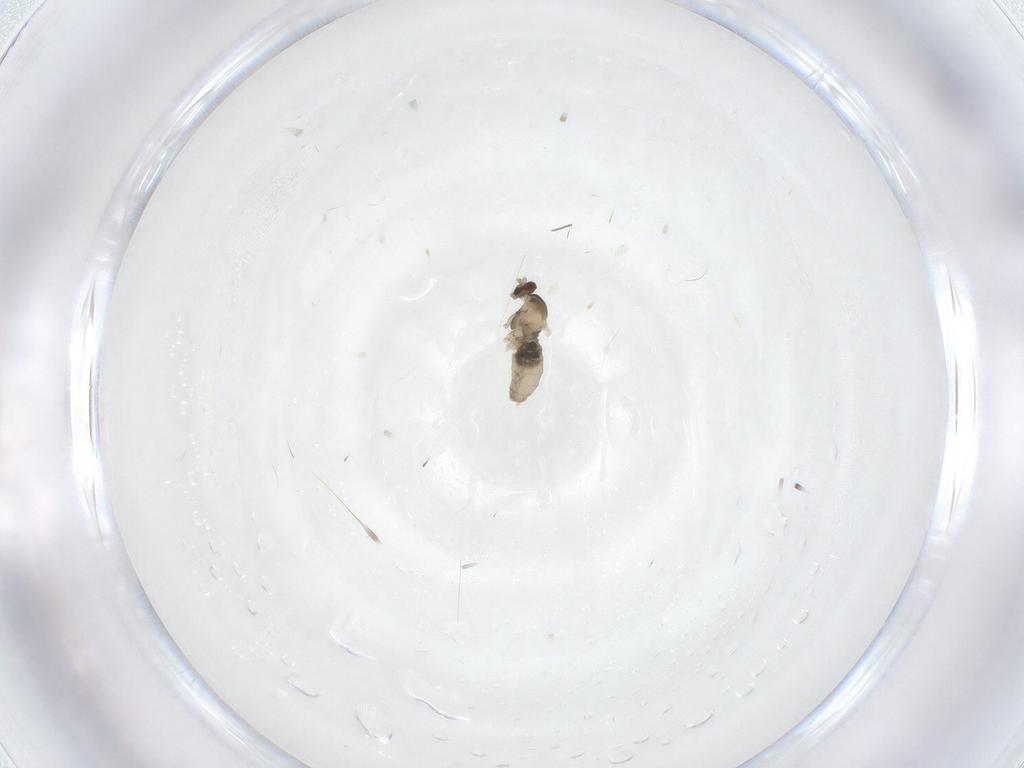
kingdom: Animalia
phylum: Arthropoda
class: Insecta
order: Diptera
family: Cecidomyiidae
